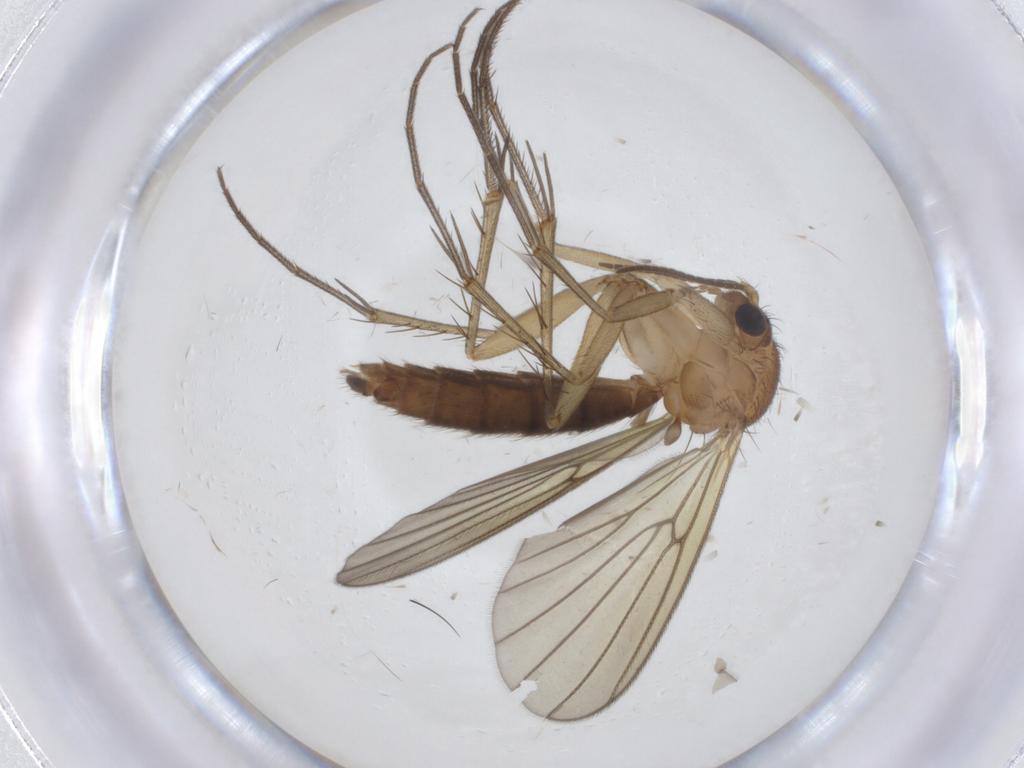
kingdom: Animalia
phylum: Arthropoda
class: Insecta
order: Diptera
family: Mycetophilidae
